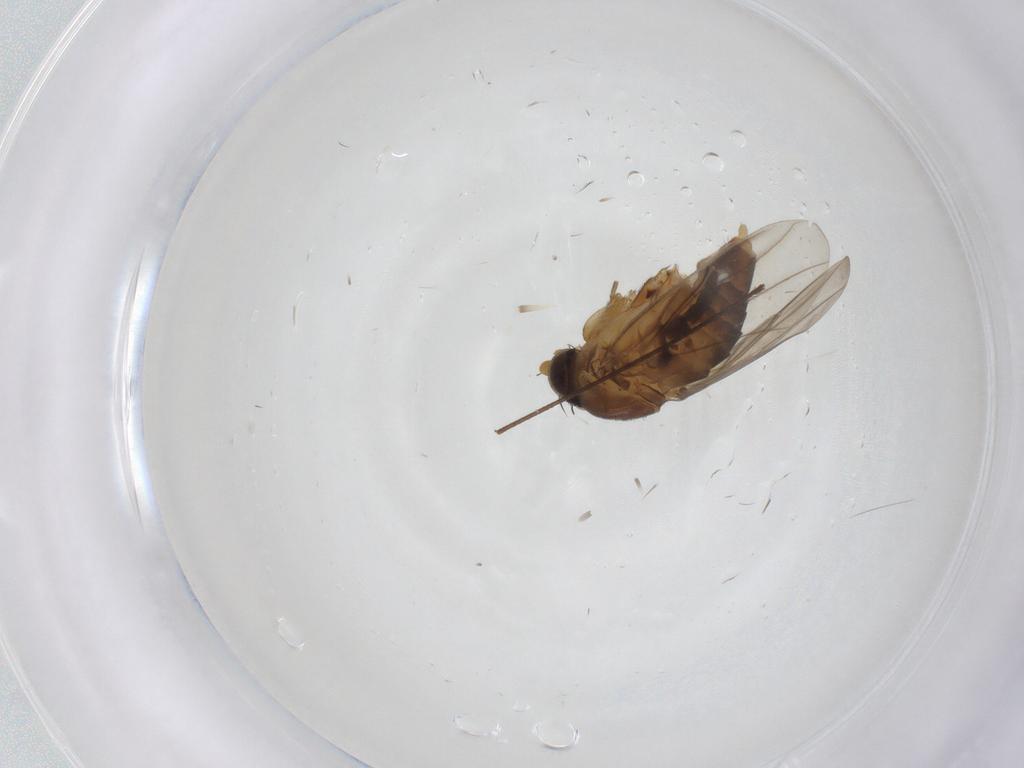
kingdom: Animalia
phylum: Arthropoda
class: Insecta
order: Diptera
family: Phoridae
